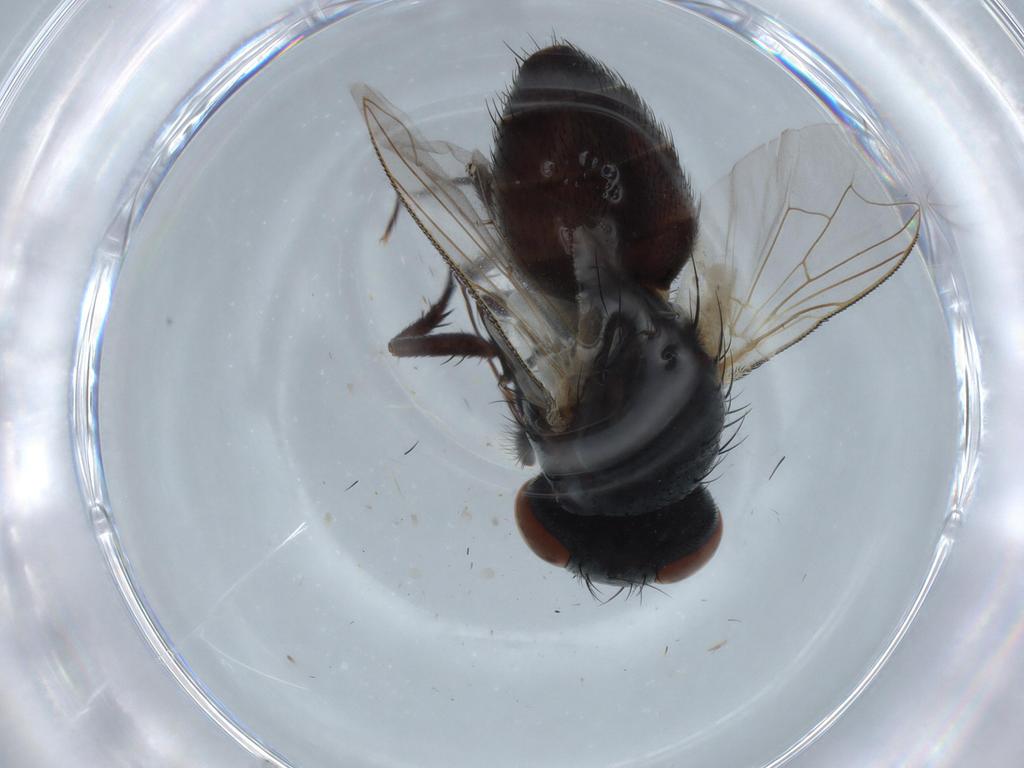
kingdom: Animalia
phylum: Arthropoda
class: Insecta
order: Diptera
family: Sarcophagidae
